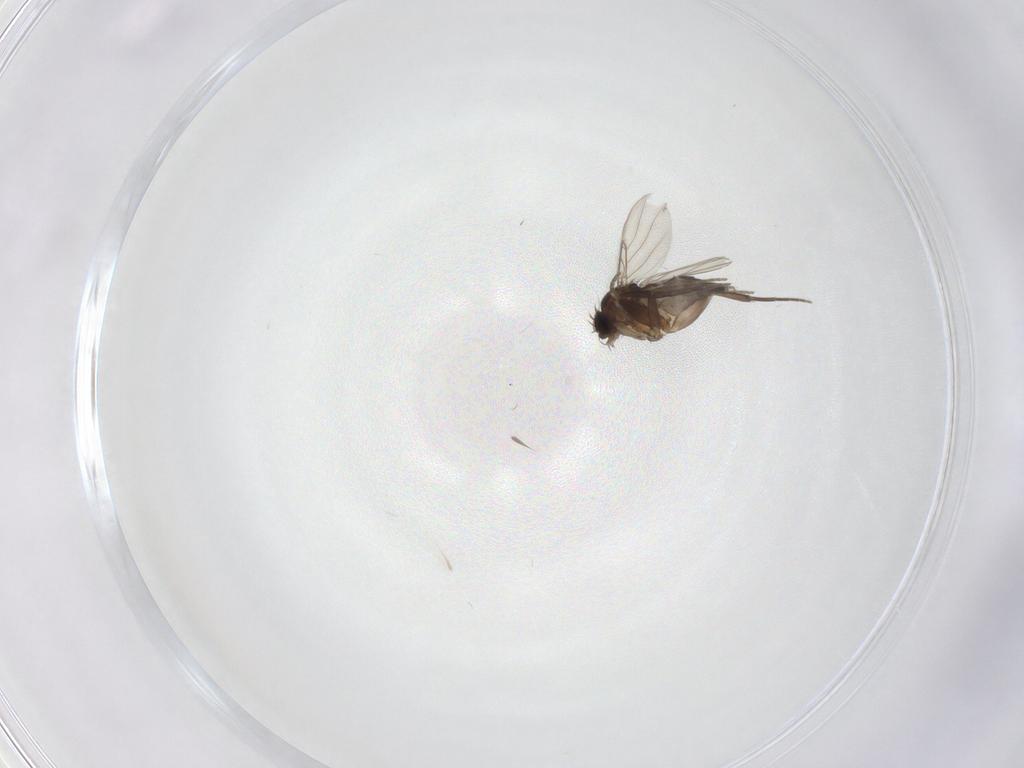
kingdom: Animalia
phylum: Arthropoda
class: Insecta
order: Diptera
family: Phoridae
